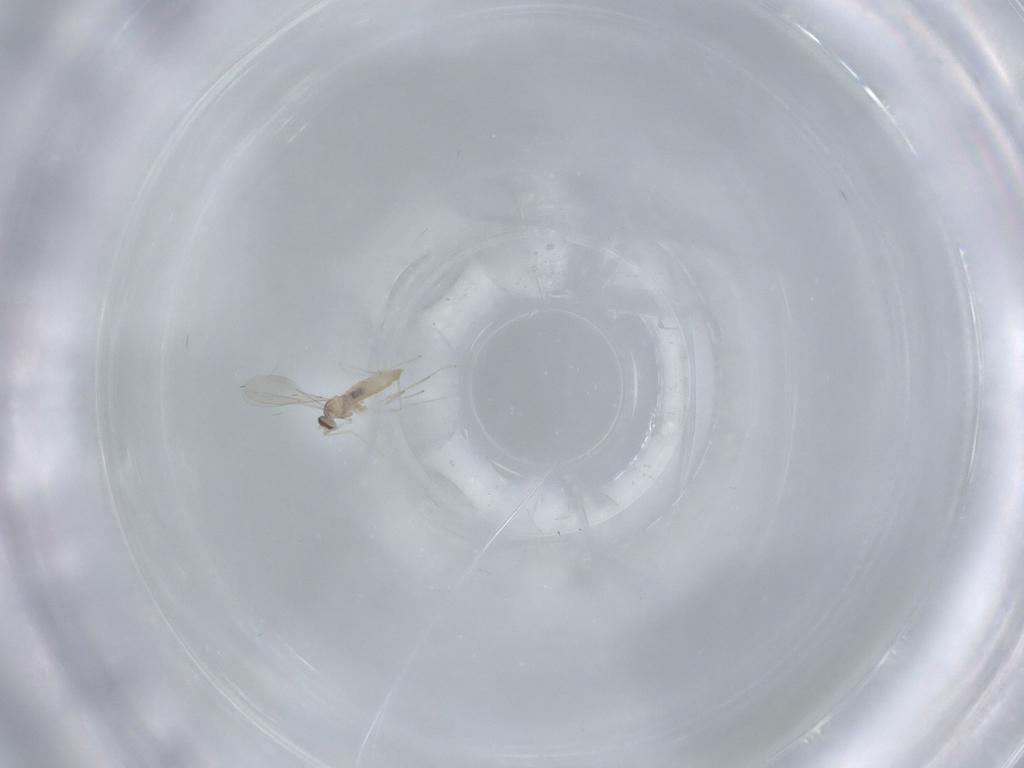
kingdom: Animalia
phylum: Arthropoda
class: Insecta
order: Diptera
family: Cecidomyiidae
